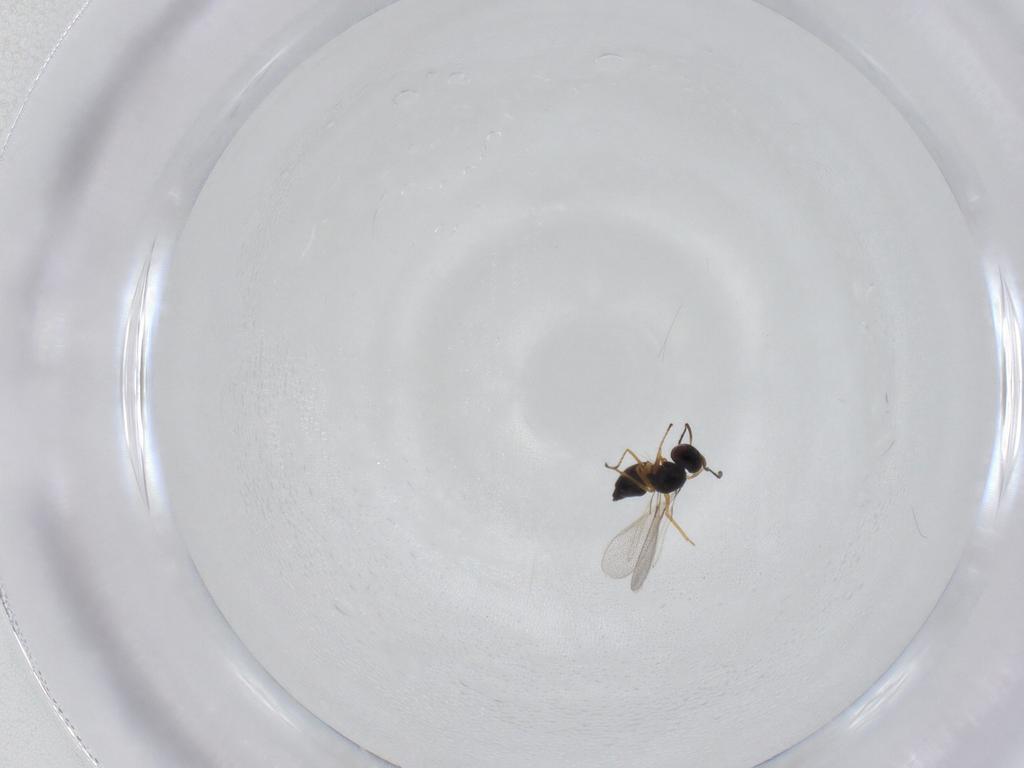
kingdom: Animalia
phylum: Arthropoda
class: Insecta
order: Hymenoptera
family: Mymaridae
